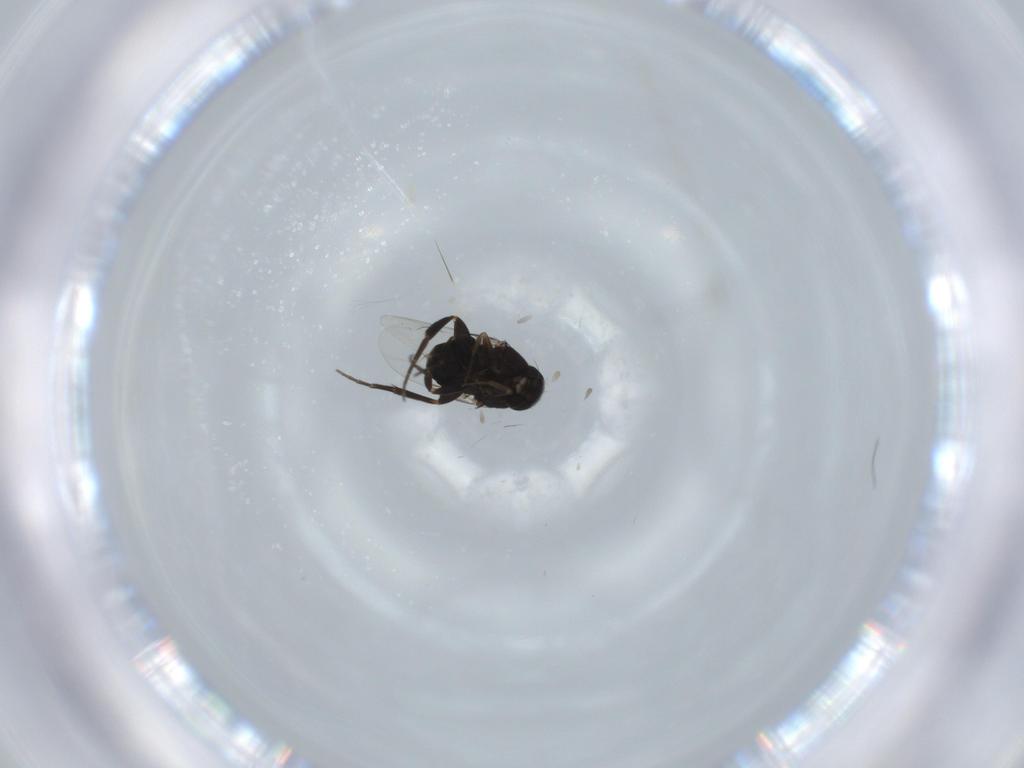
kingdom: Animalia
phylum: Arthropoda
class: Insecta
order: Diptera
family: Phoridae
